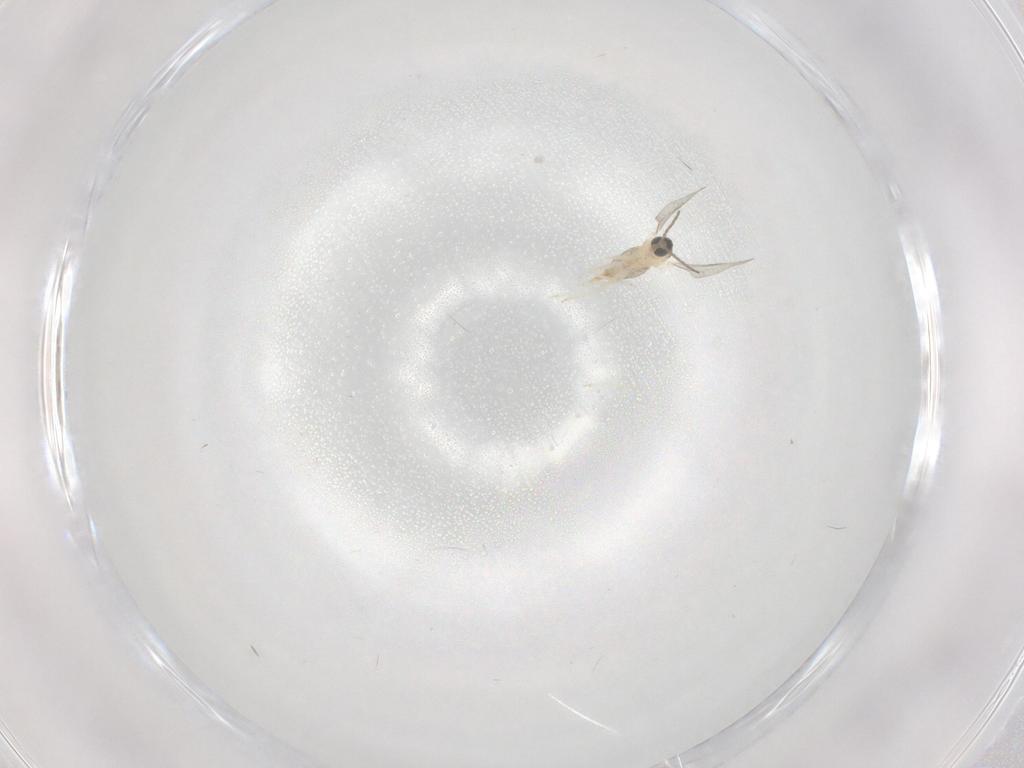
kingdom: Animalia
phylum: Arthropoda
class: Insecta
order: Diptera
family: Cecidomyiidae
